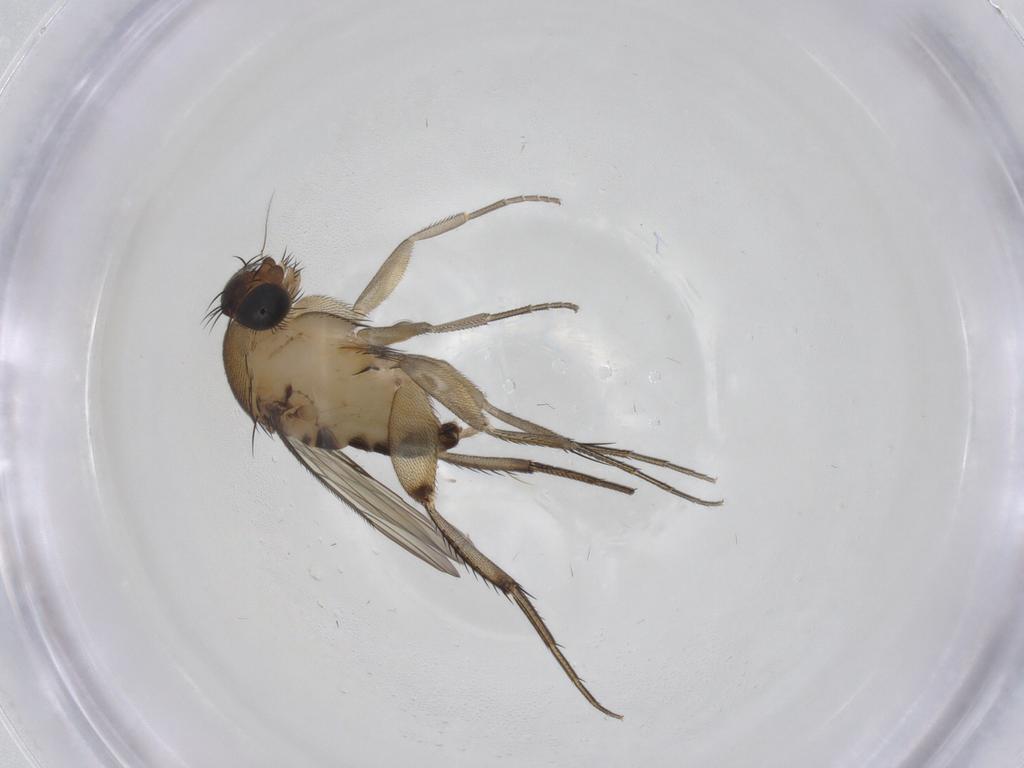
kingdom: Animalia
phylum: Arthropoda
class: Insecta
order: Diptera
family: Phoridae
